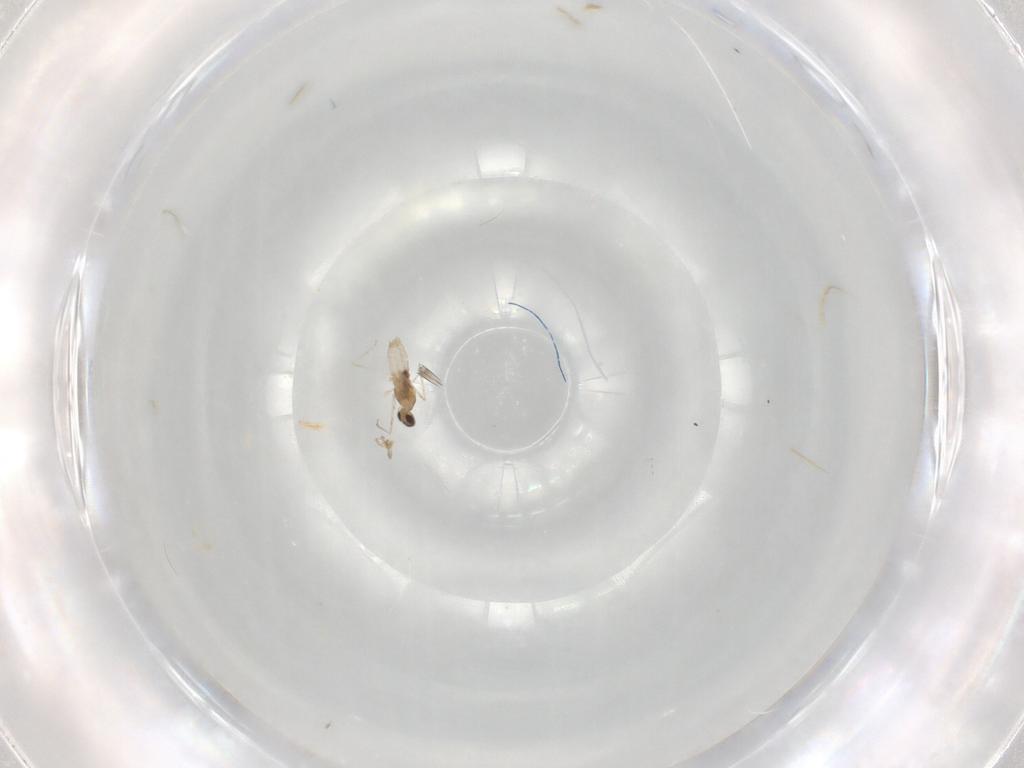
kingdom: Animalia
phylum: Arthropoda
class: Insecta
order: Diptera
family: Cecidomyiidae
